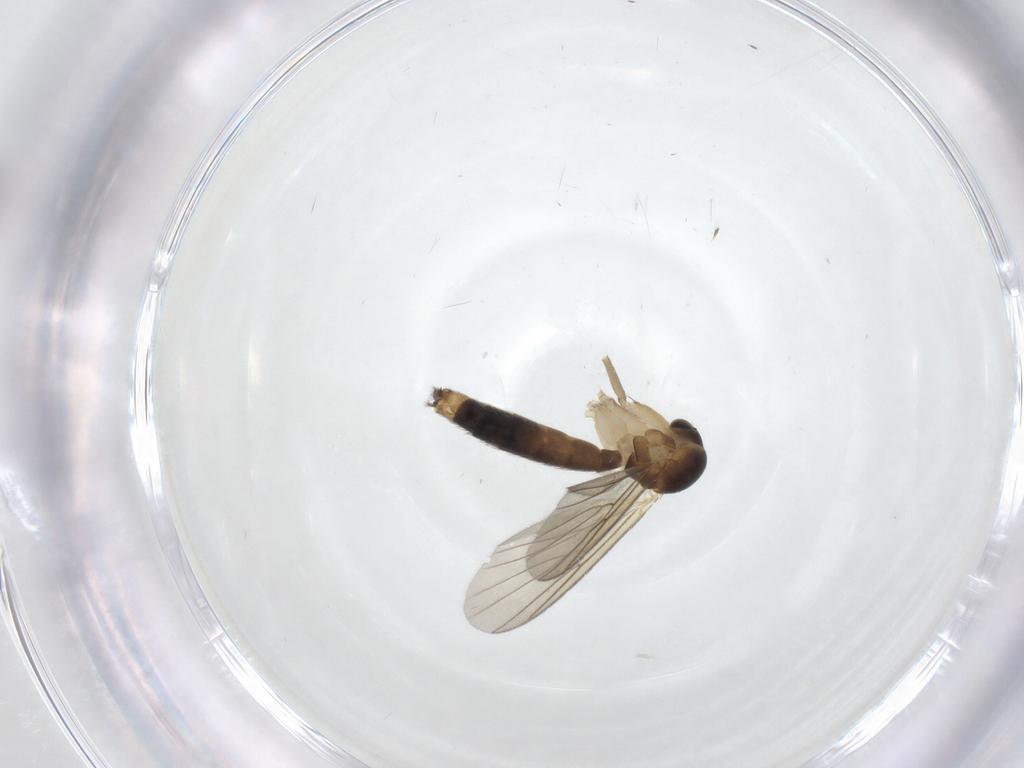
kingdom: Animalia
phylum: Arthropoda
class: Insecta
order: Diptera
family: Mycetophilidae
